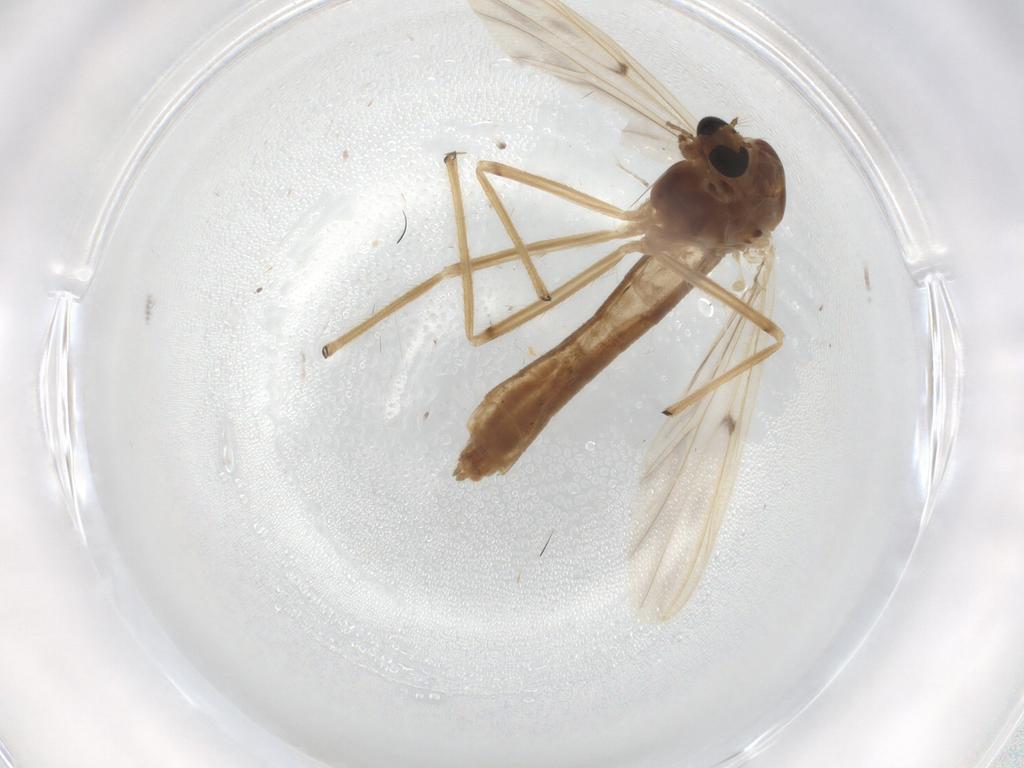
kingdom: Animalia
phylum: Arthropoda
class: Insecta
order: Diptera
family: Chironomidae
